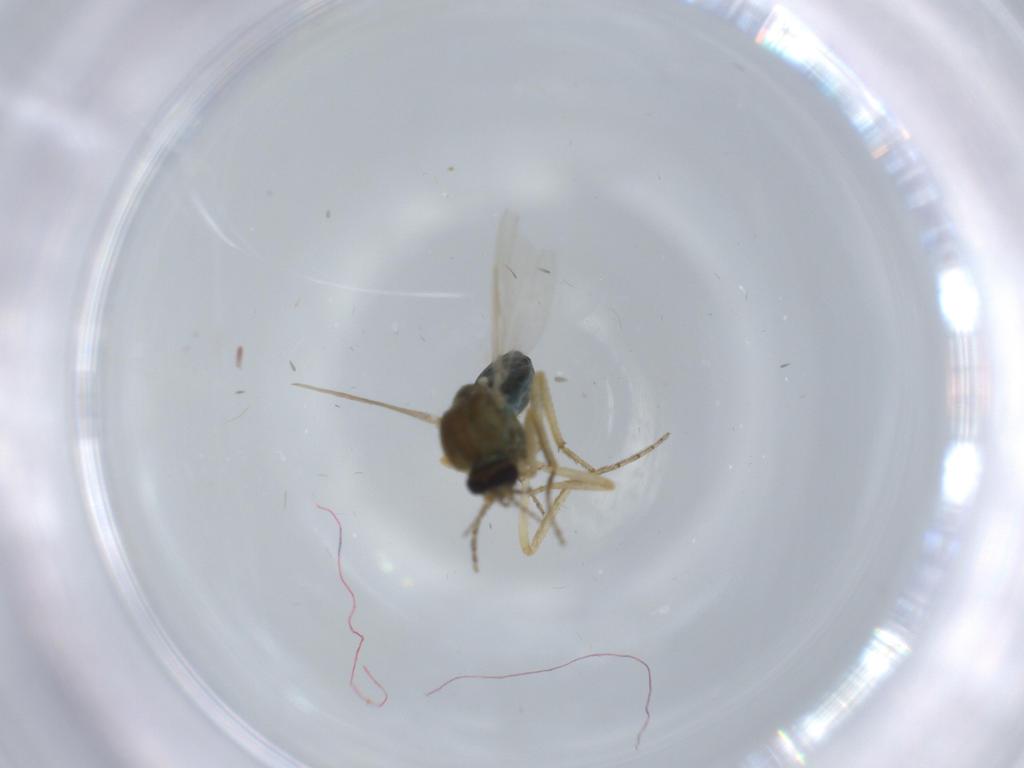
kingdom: Animalia
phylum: Arthropoda
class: Insecta
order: Diptera
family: Ceratopogonidae
